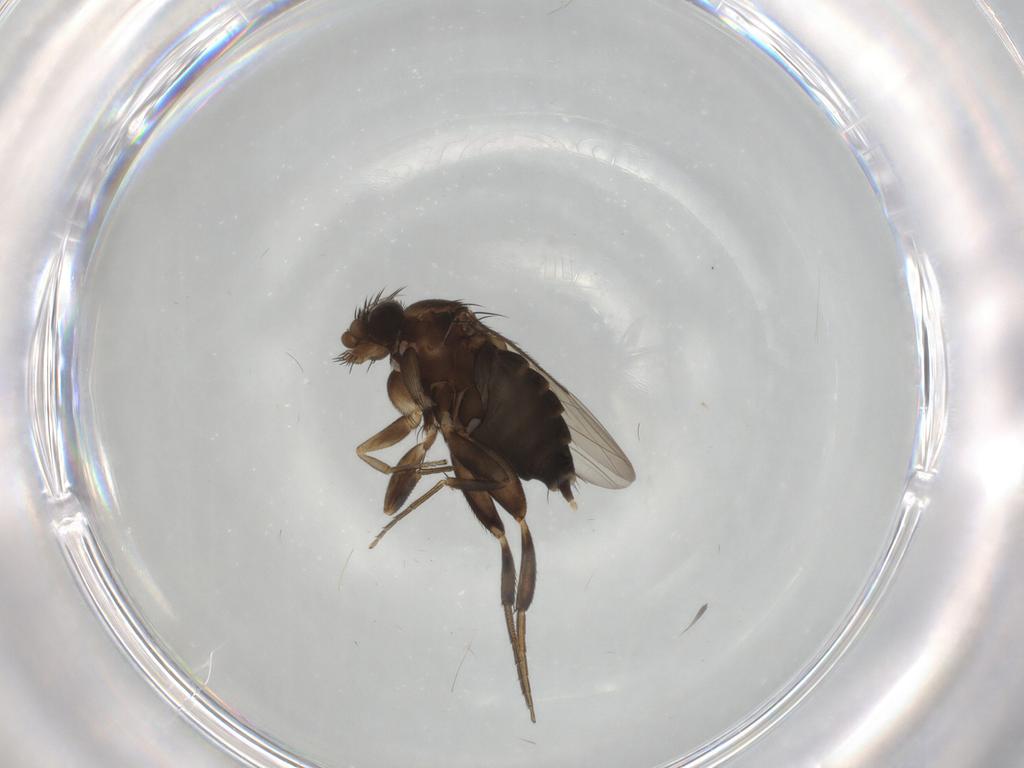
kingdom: Animalia
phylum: Arthropoda
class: Insecta
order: Diptera
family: Phoridae
